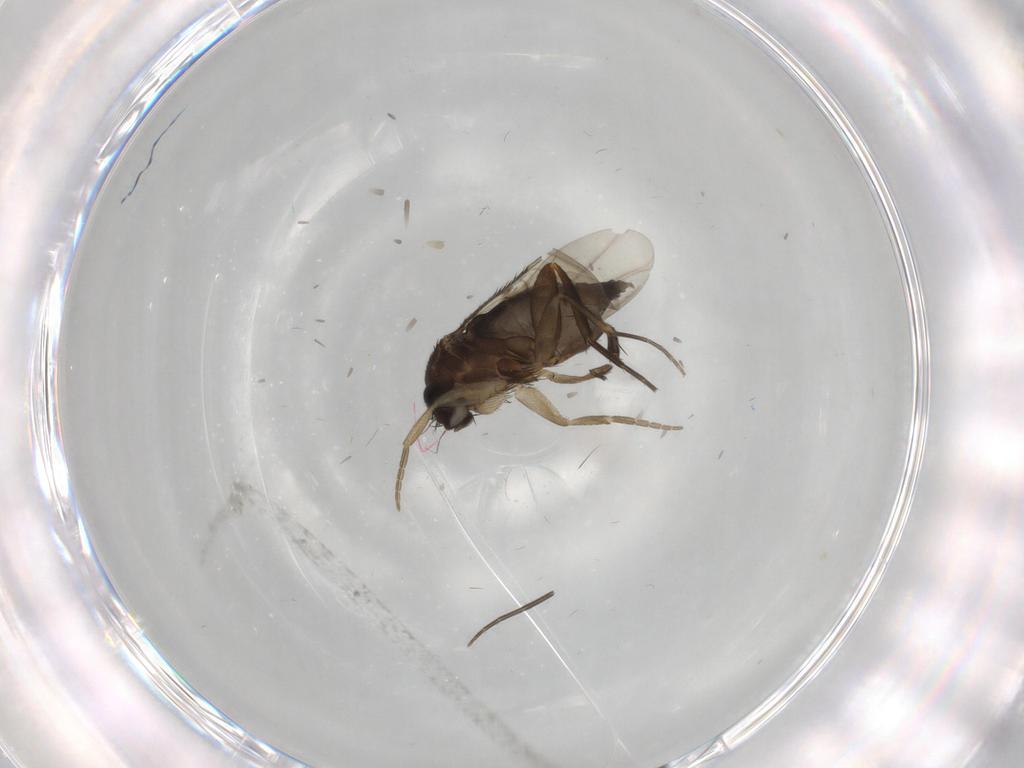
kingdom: Animalia
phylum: Arthropoda
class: Insecta
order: Diptera
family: Phoridae
